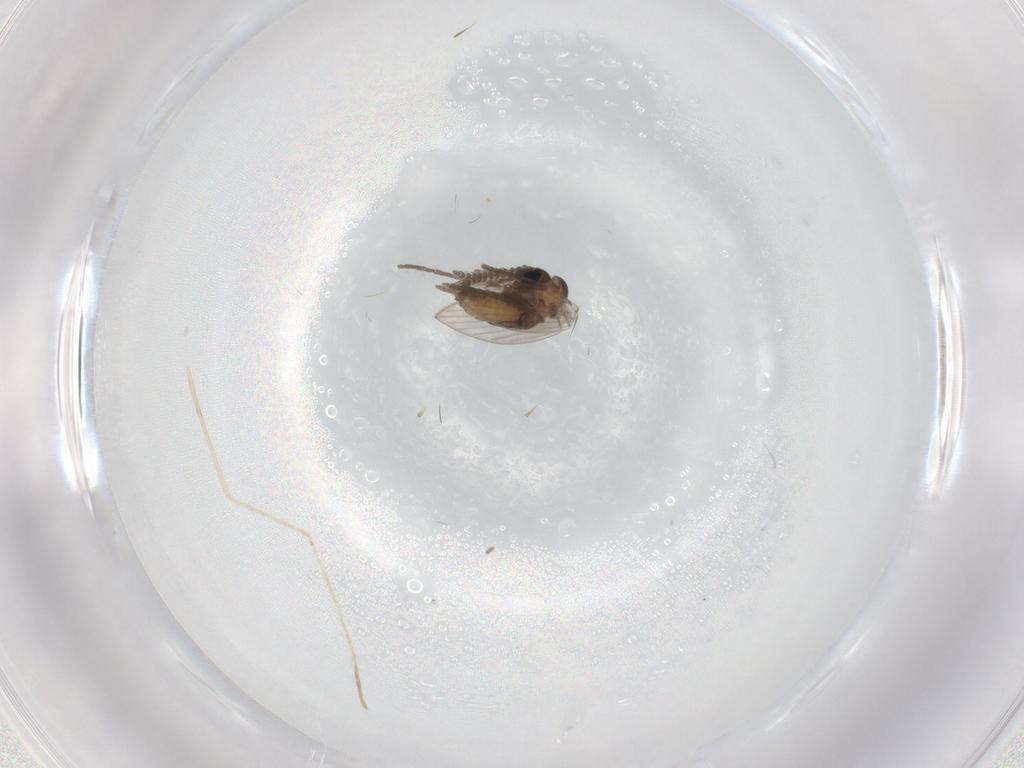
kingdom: Animalia
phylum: Arthropoda
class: Insecta
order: Diptera
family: Psychodidae
